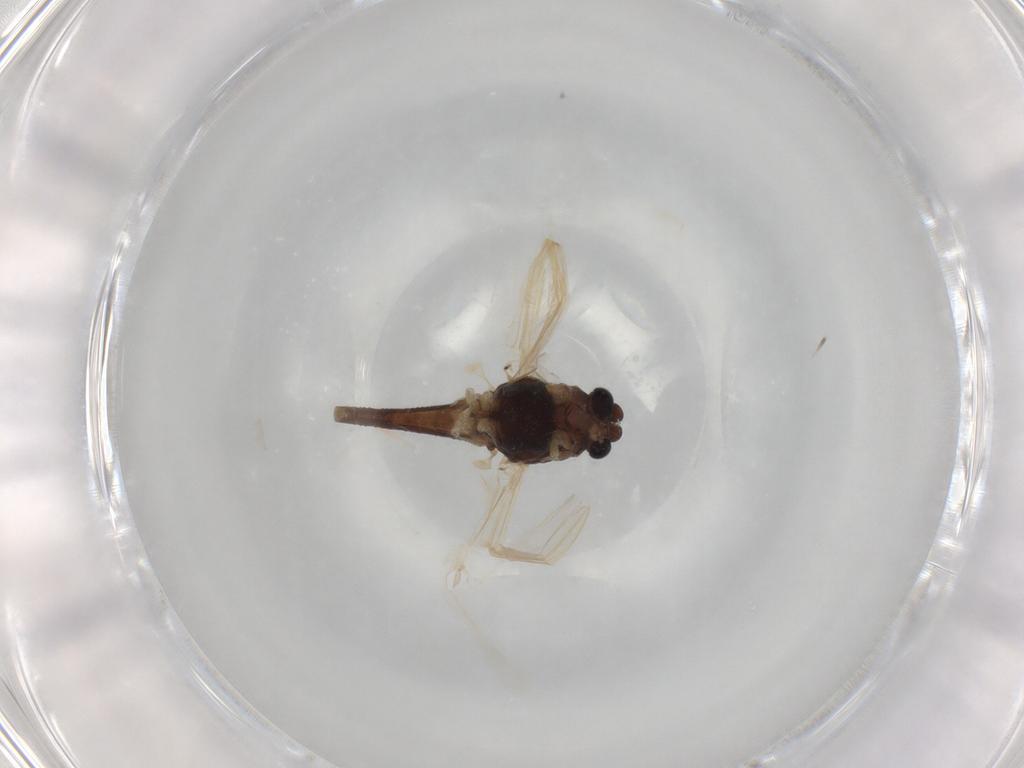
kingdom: Animalia
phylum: Arthropoda
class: Insecta
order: Diptera
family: Chironomidae
